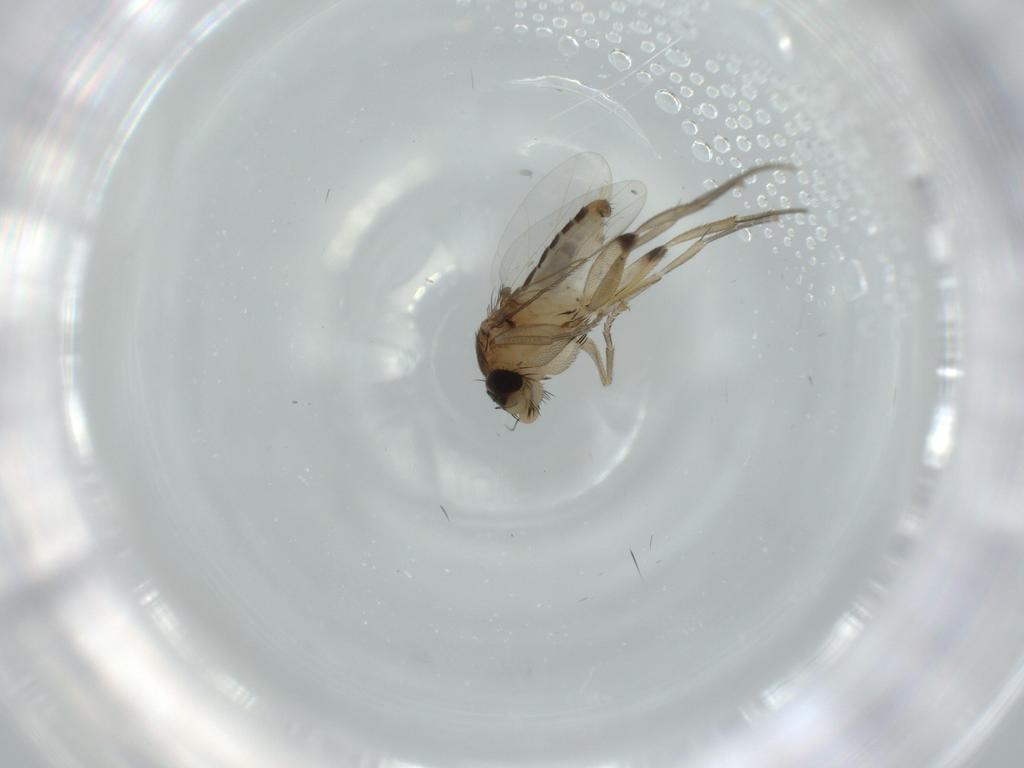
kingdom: Animalia
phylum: Arthropoda
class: Insecta
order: Diptera
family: Phoridae
